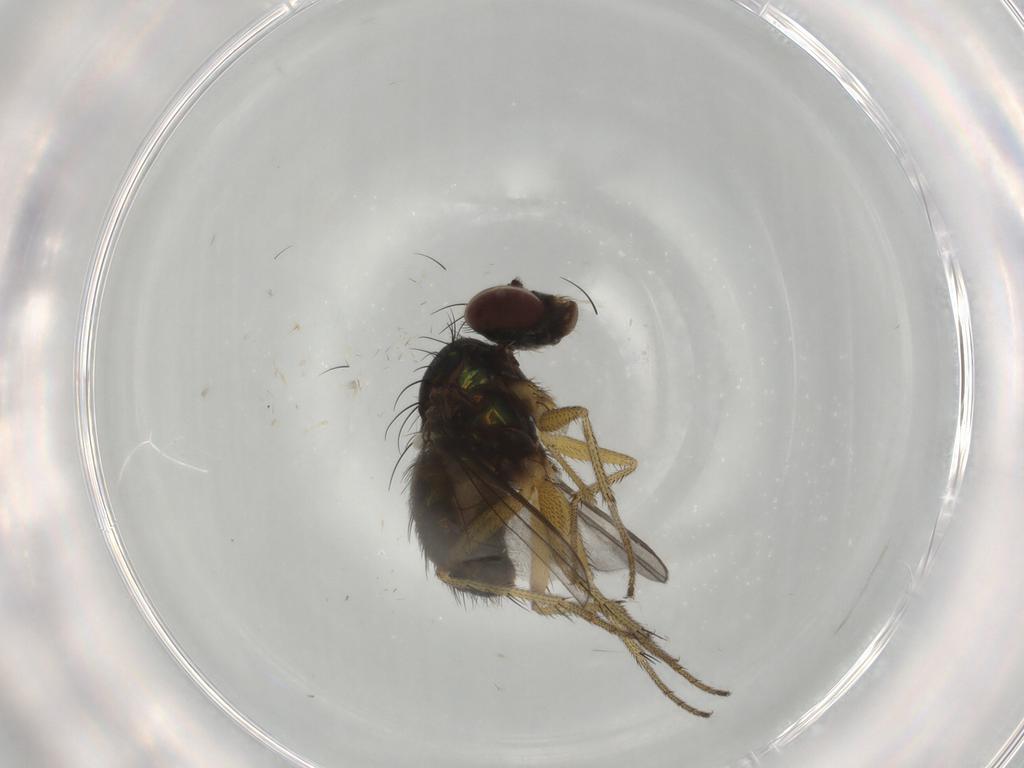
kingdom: Animalia
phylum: Arthropoda
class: Insecta
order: Diptera
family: Dolichopodidae
